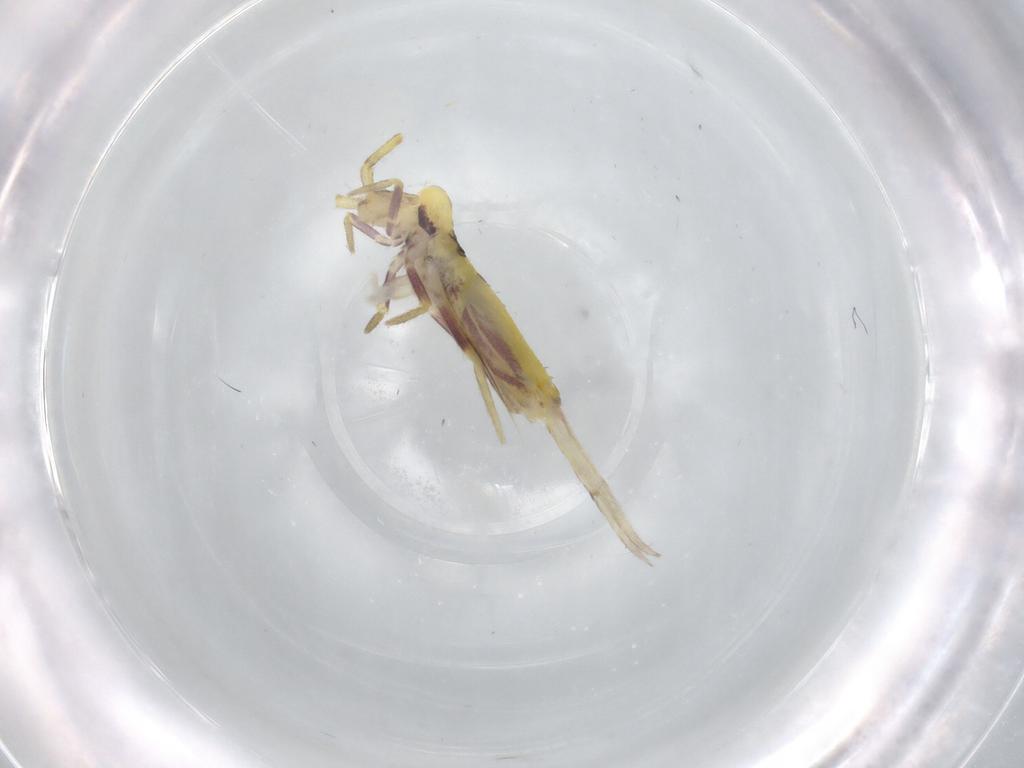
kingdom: Animalia
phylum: Arthropoda
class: Collembola
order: Entomobryomorpha
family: Entomobryidae
